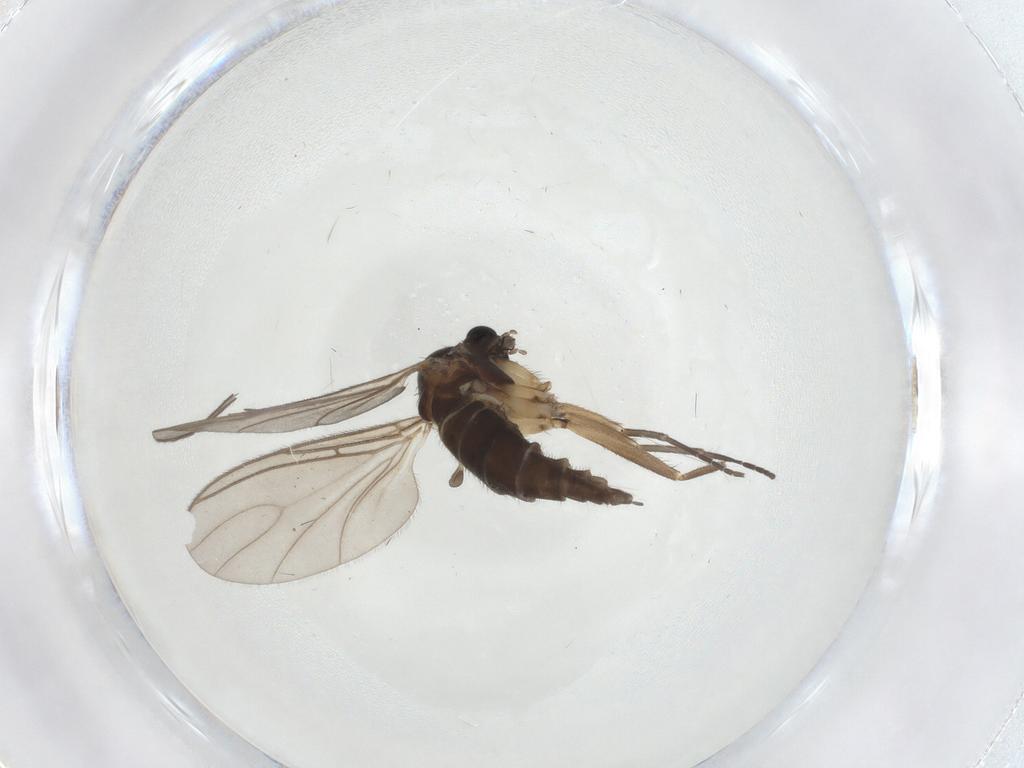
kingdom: Animalia
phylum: Arthropoda
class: Insecta
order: Diptera
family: Sciaridae
